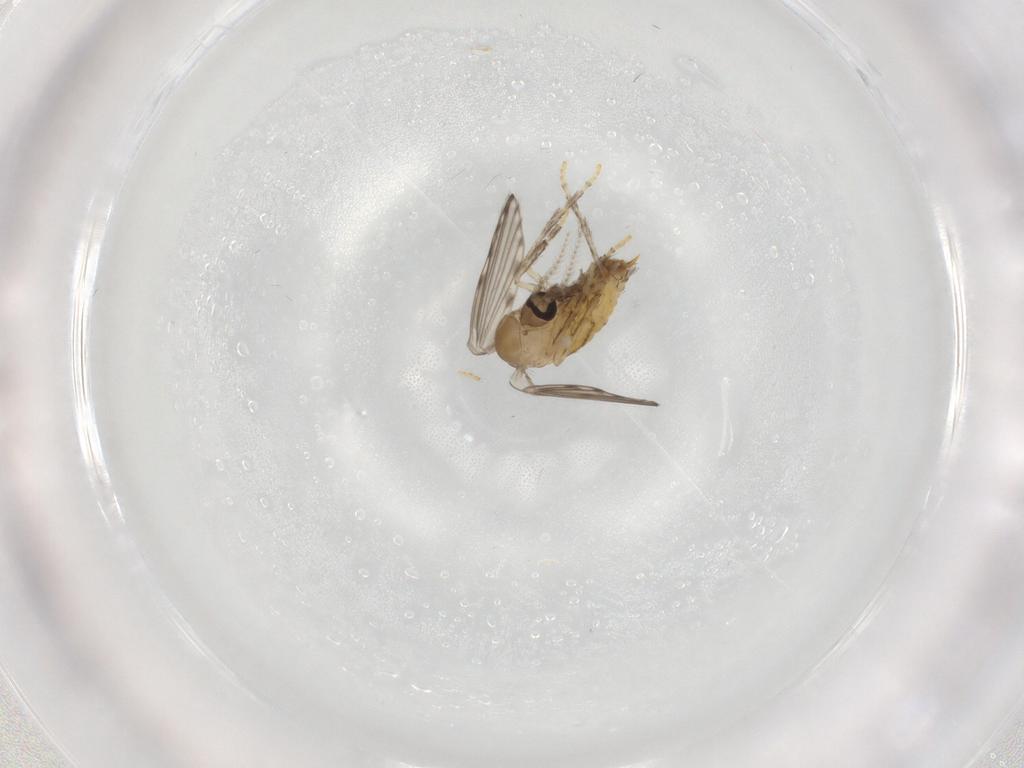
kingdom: Animalia
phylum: Arthropoda
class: Insecta
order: Diptera
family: Psychodidae
